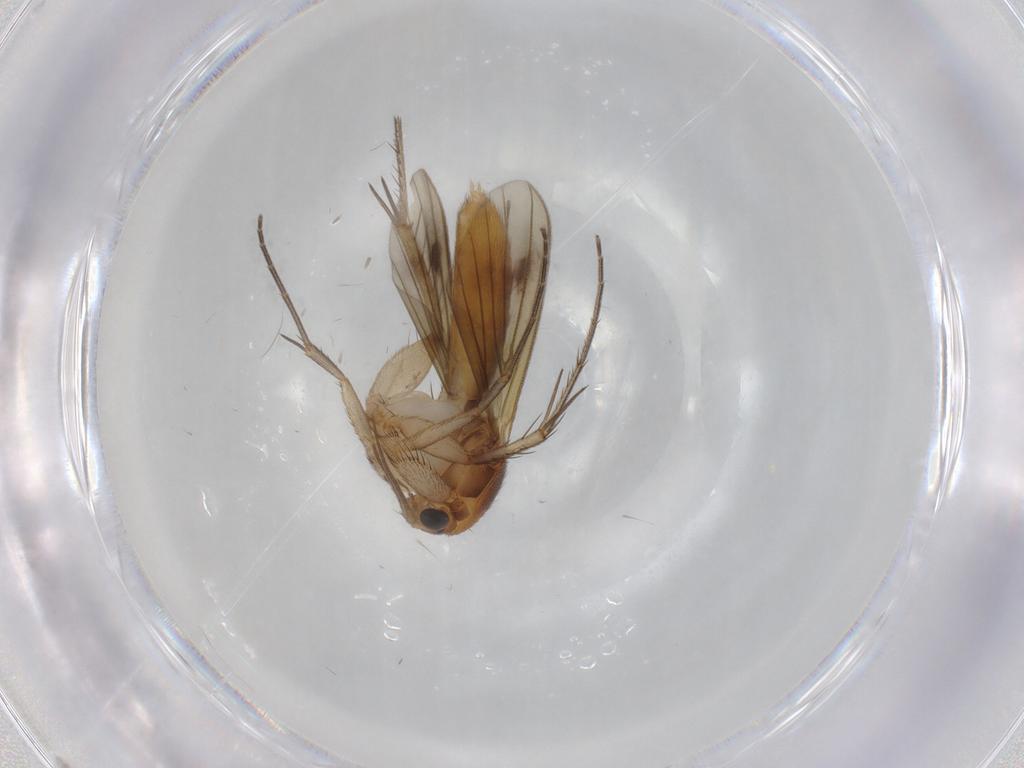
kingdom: Animalia
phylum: Arthropoda
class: Insecta
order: Diptera
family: Mycetophilidae
